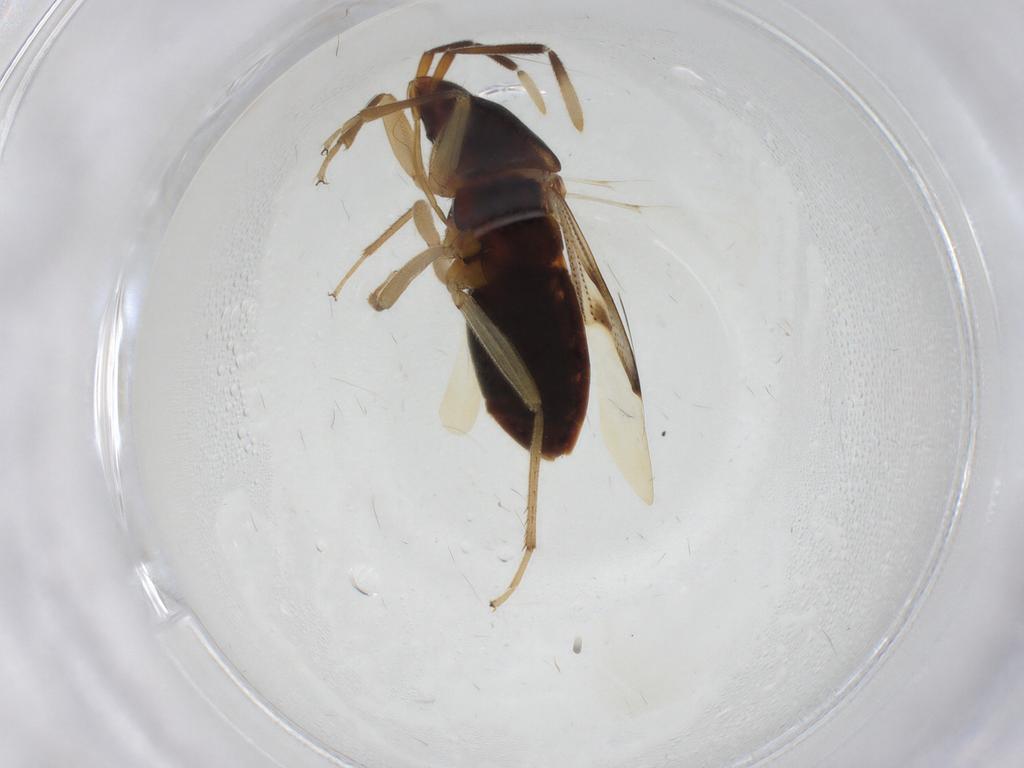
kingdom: Animalia
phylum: Arthropoda
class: Insecta
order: Hemiptera
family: Rhyparochromidae
